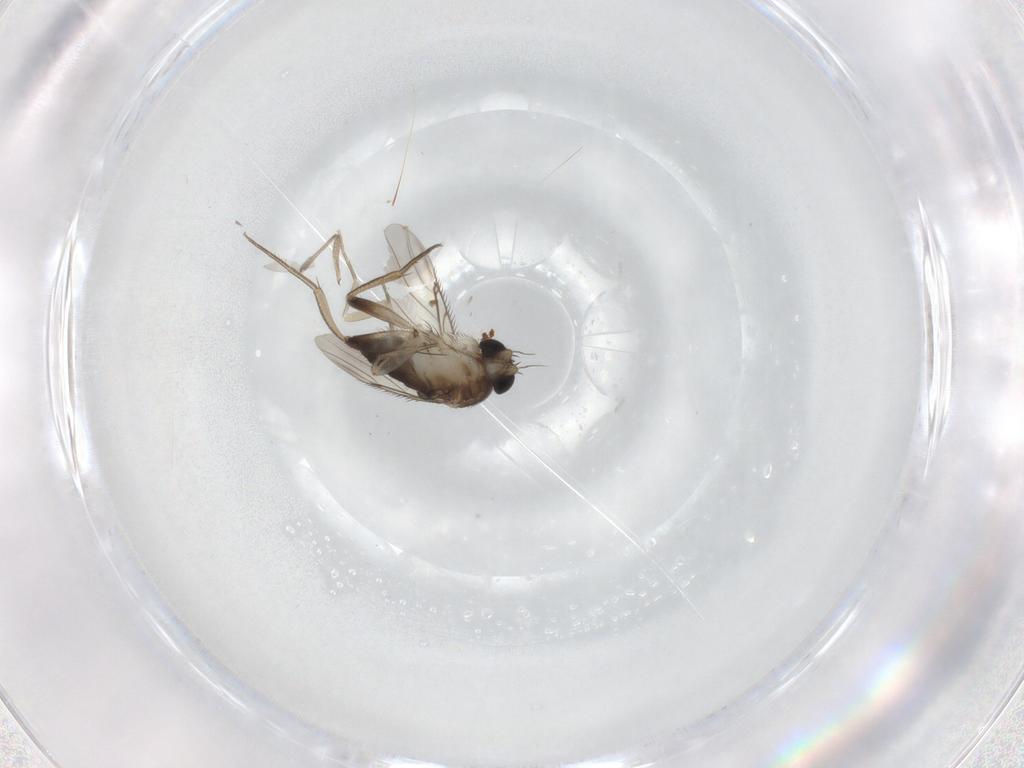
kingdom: Animalia
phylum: Arthropoda
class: Insecta
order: Diptera
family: Phoridae
